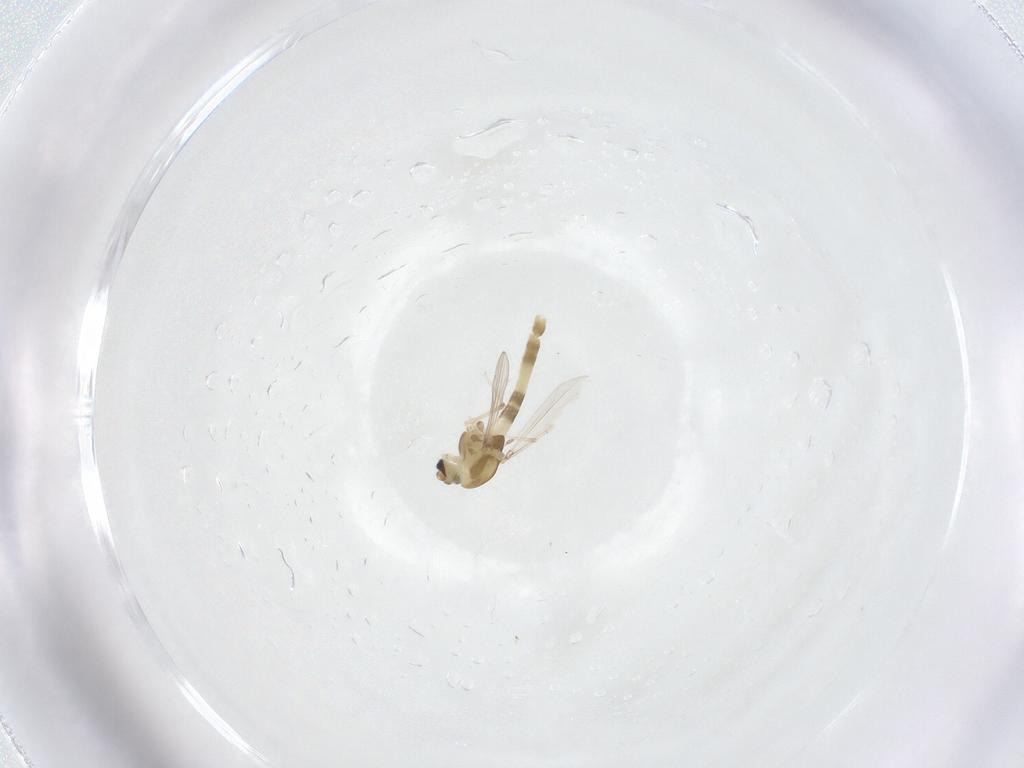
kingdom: Animalia
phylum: Arthropoda
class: Insecta
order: Diptera
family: Chironomidae
